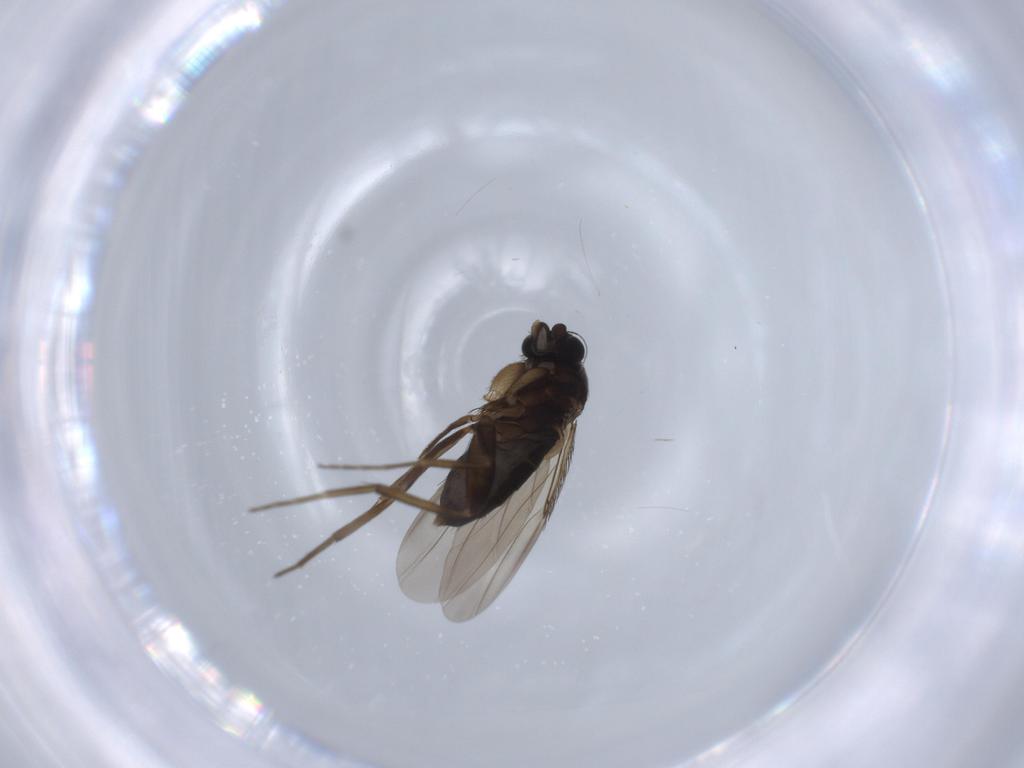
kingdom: Animalia
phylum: Arthropoda
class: Insecta
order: Diptera
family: Phoridae
